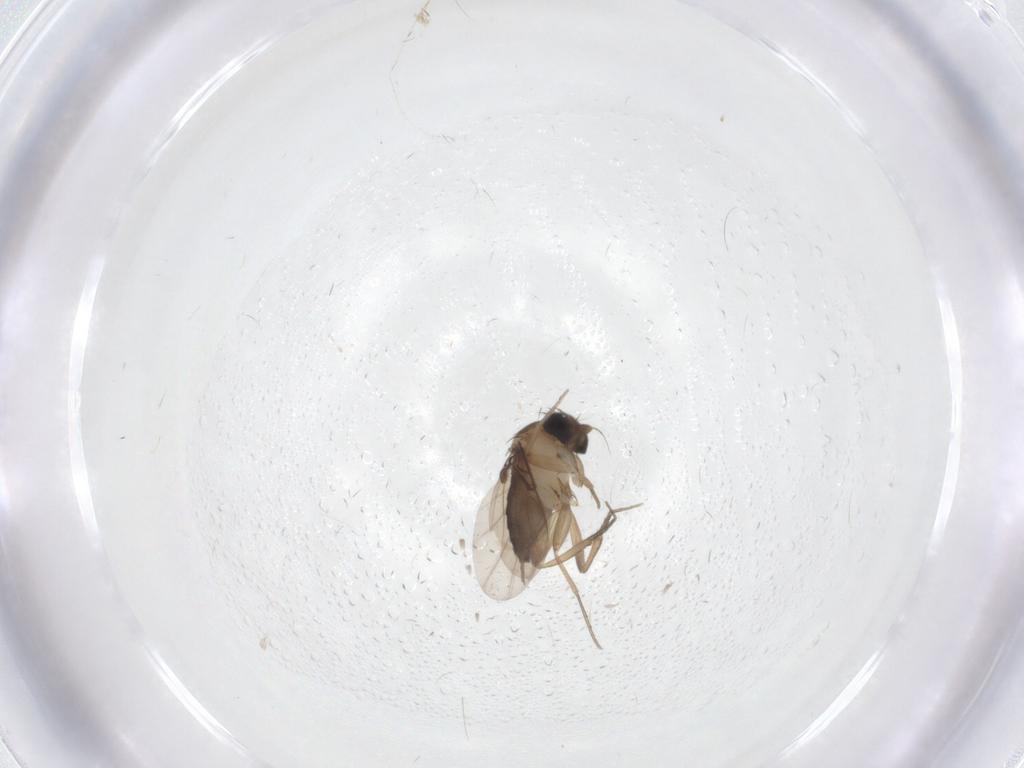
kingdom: Animalia
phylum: Arthropoda
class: Insecta
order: Diptera
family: Phoridae
